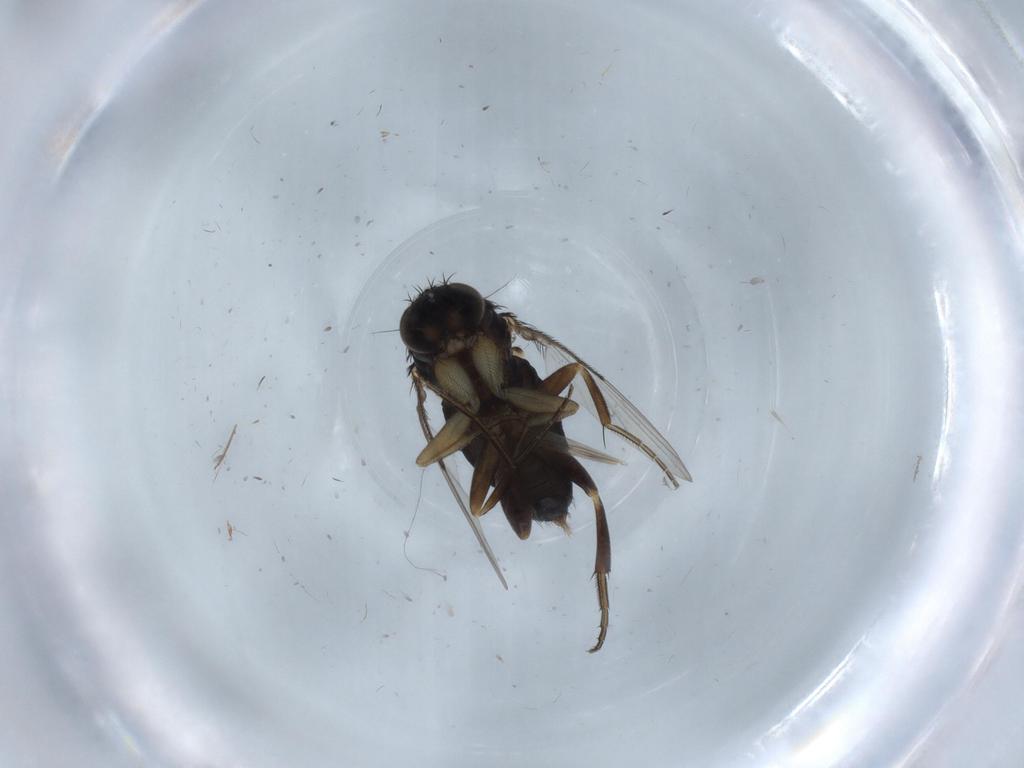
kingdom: Animalia
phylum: Arthropoda
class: Insecta
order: Diptera
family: Phoridae
